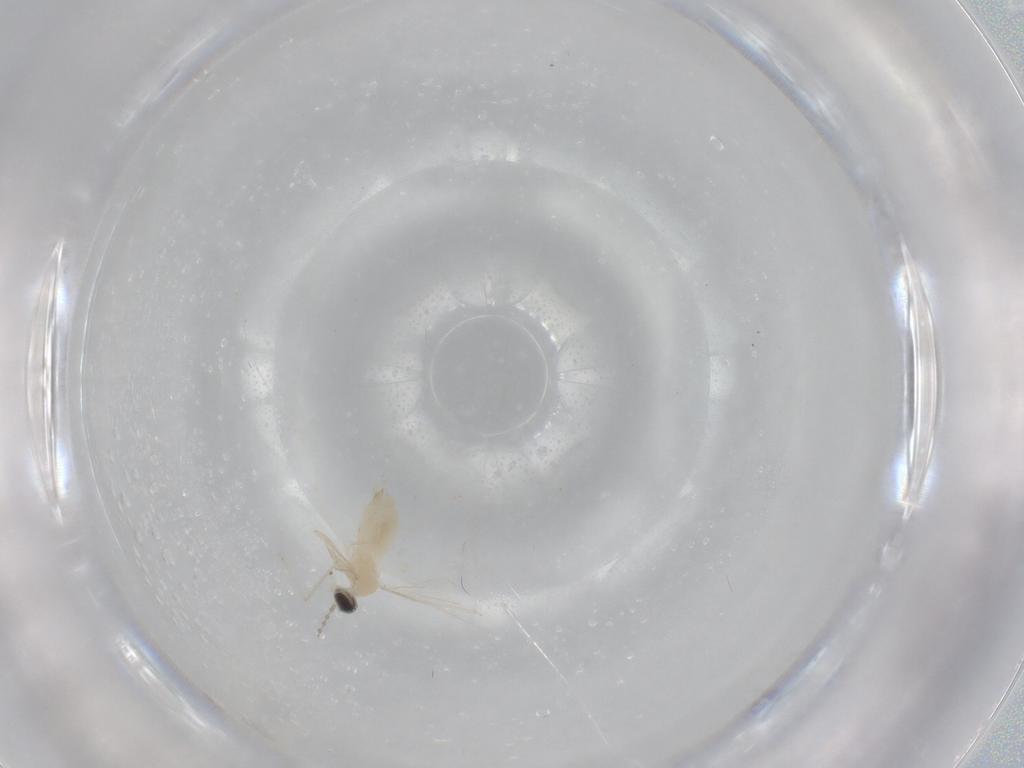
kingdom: Animalia
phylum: Arthropoda
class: Insecta
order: Diptera
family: Cecidomyiidae
